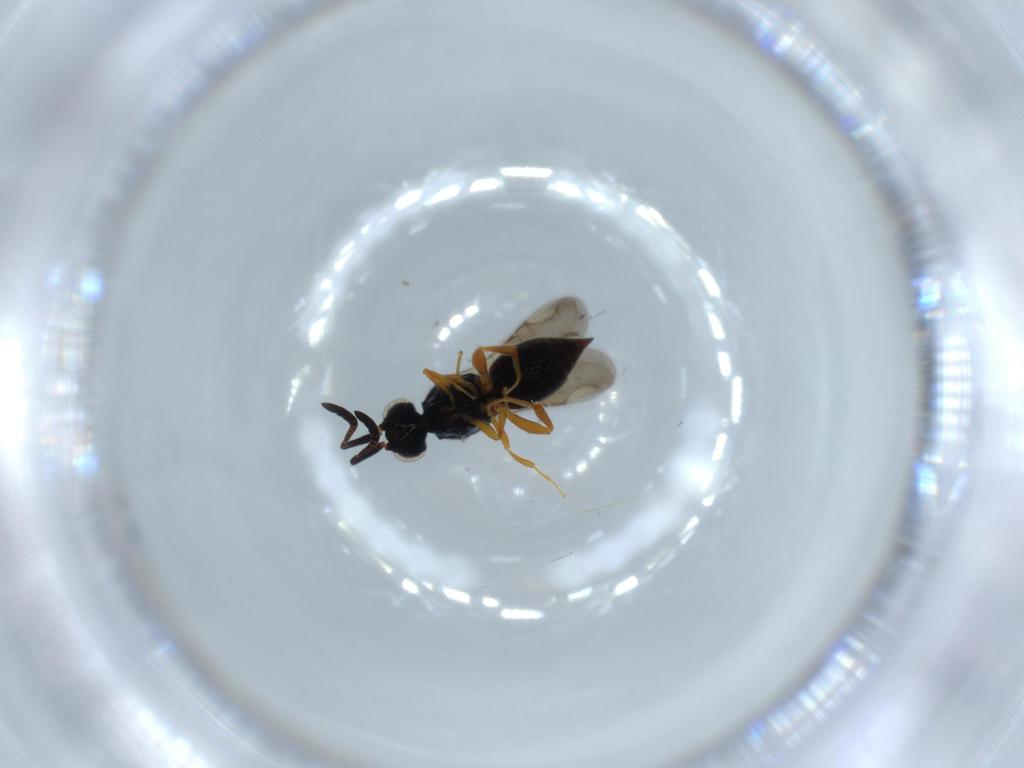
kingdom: Animalia
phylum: Arthropoda
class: Insecta
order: Hymenoptera
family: Ceraphronidae
